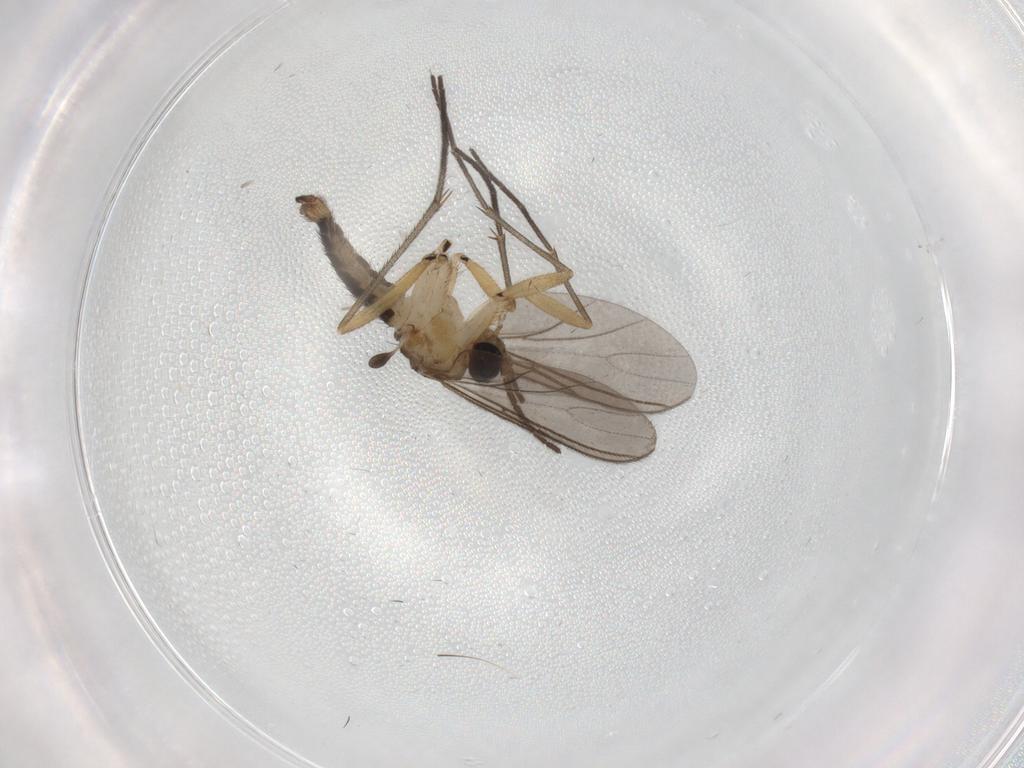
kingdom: Animalia
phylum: Arthropoda
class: Insecta
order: Diptera
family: Sciaridae
